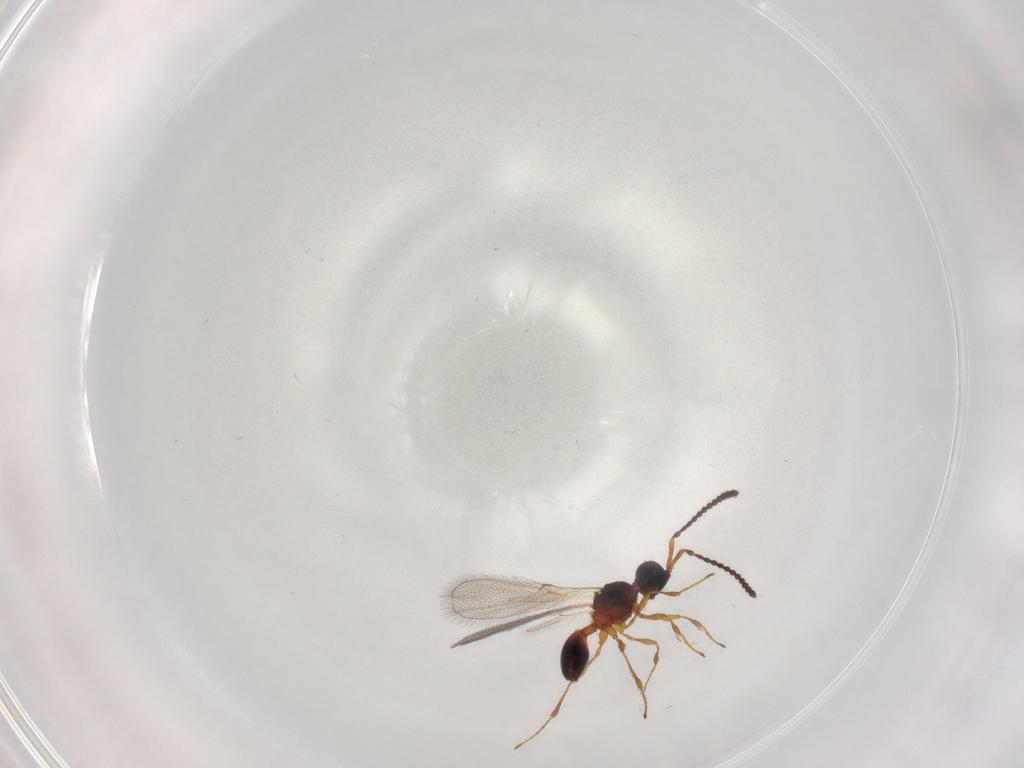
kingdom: Animalia
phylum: Arthropoda
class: Insecta
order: Hymenoptera
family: Diapriidae
